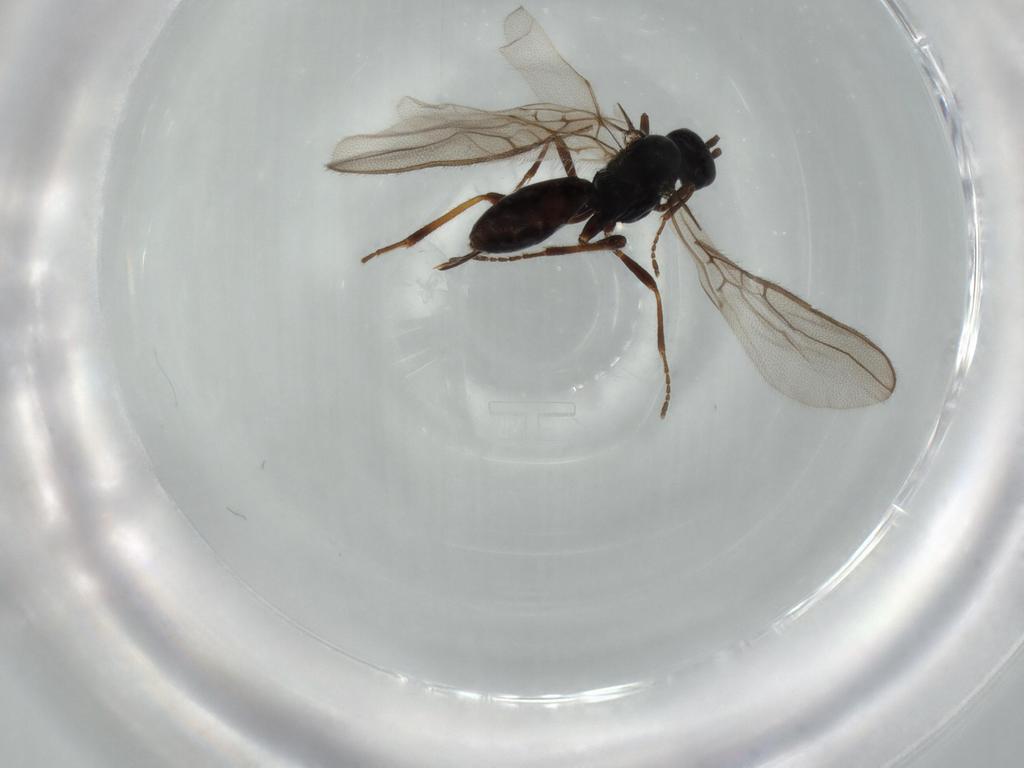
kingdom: Animalia
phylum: Arthropoda
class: Insecta
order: Hymenoptera
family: Braconidae
